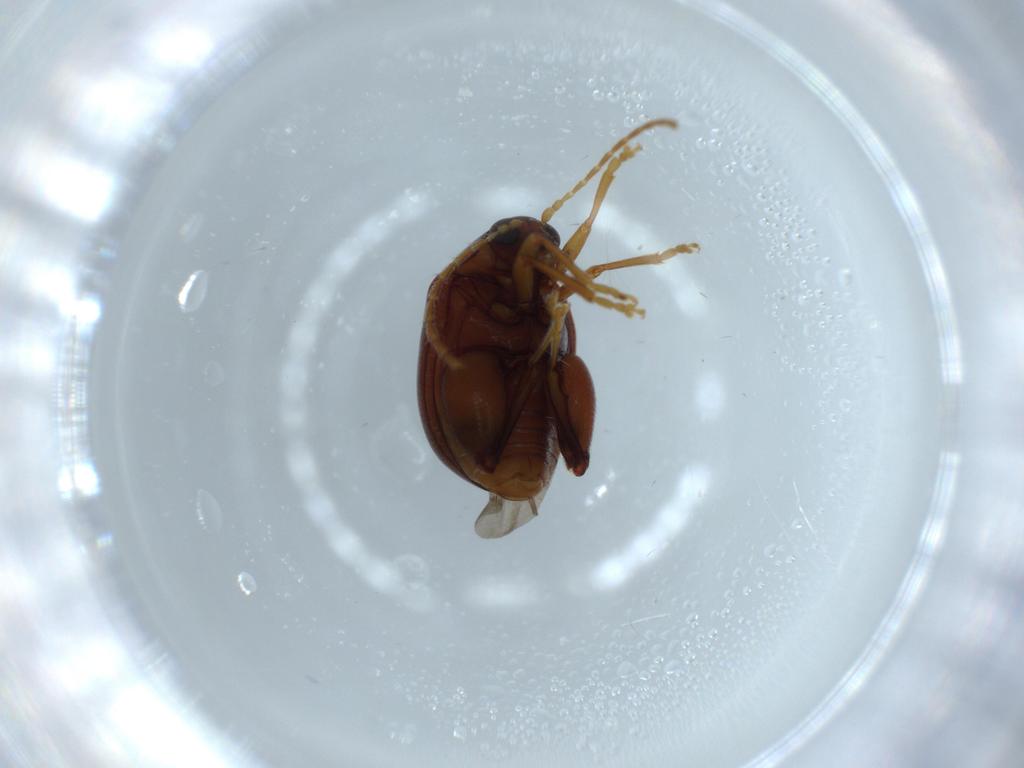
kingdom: Animalia
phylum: Arthropoda
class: Insecta
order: Coleoptera
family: Chrysomelidae
